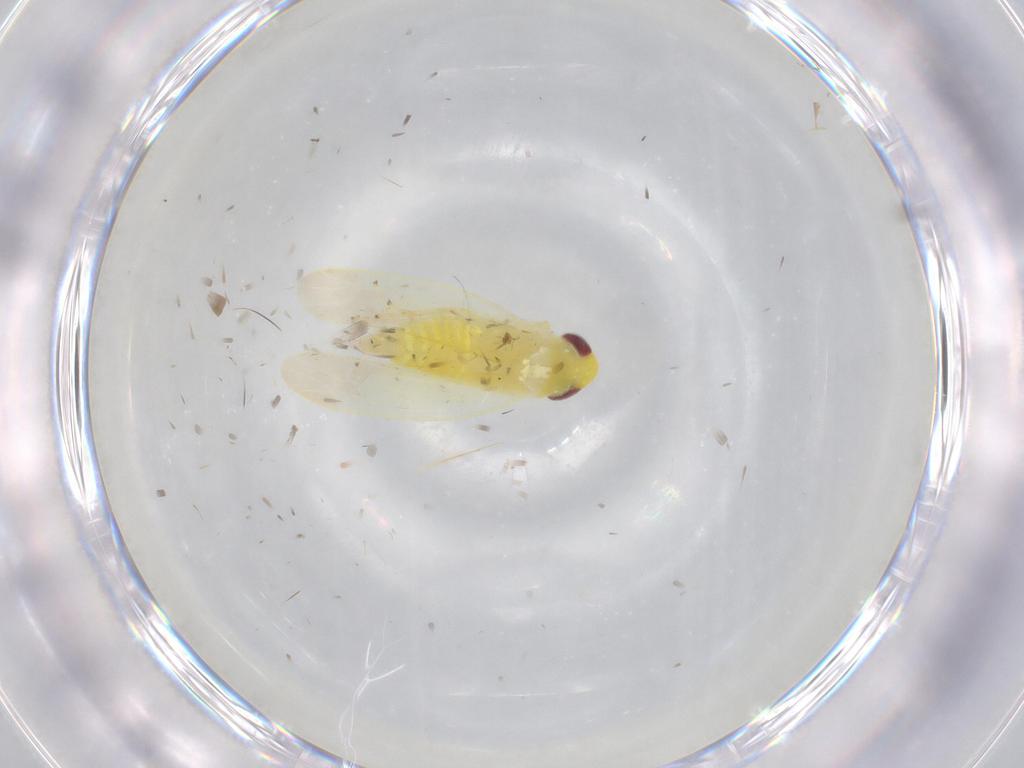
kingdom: Animalia
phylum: Arthropoda
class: Insecta
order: Hemiptera
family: Cicadellidae
